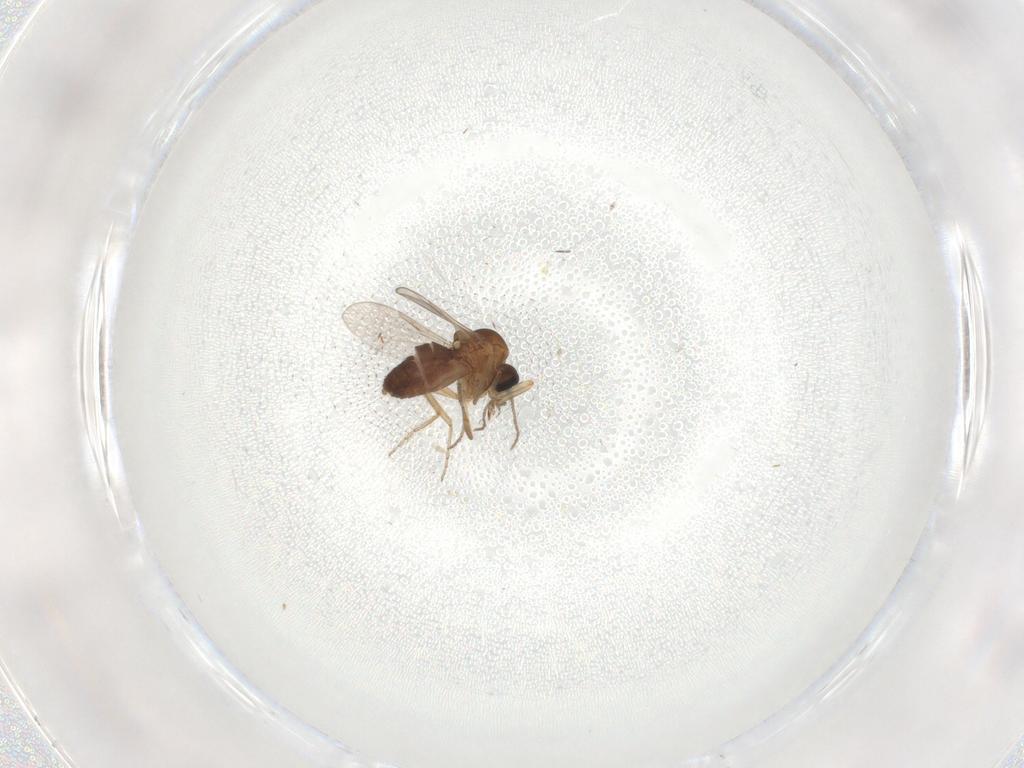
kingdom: Animalia
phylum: Arthropoda
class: Insecta
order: Diptera
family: Ceratopogonidae
